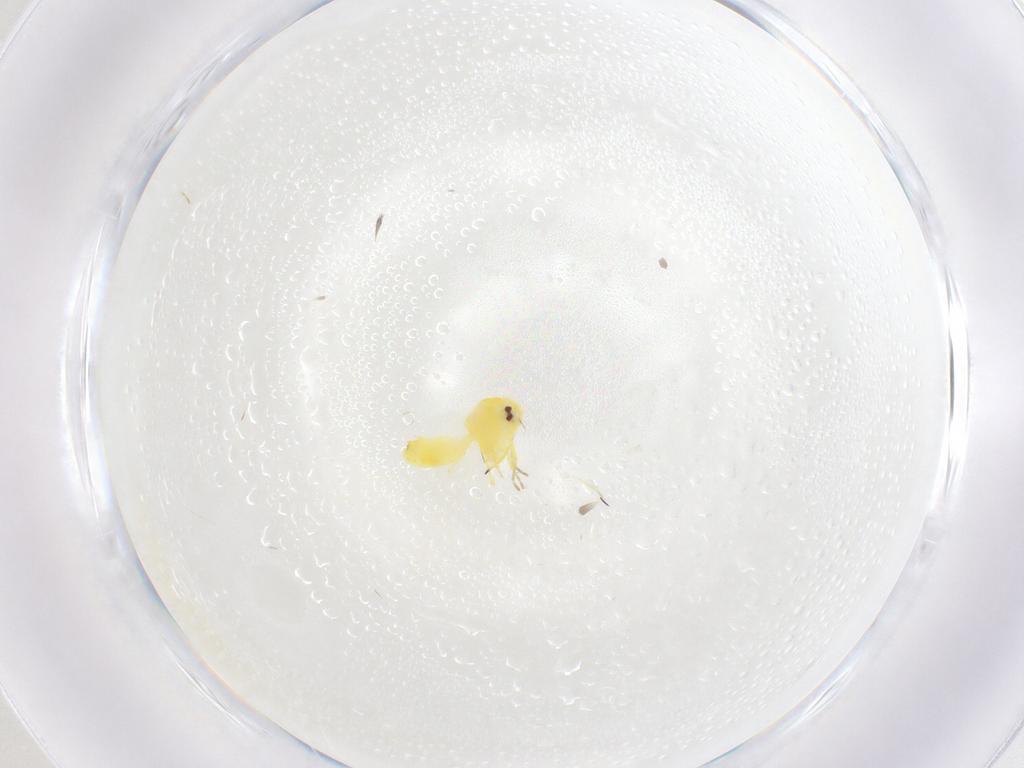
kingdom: Animalia
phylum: Arthropoda
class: Insecta
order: Hemiptera
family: Aleyrodidae
